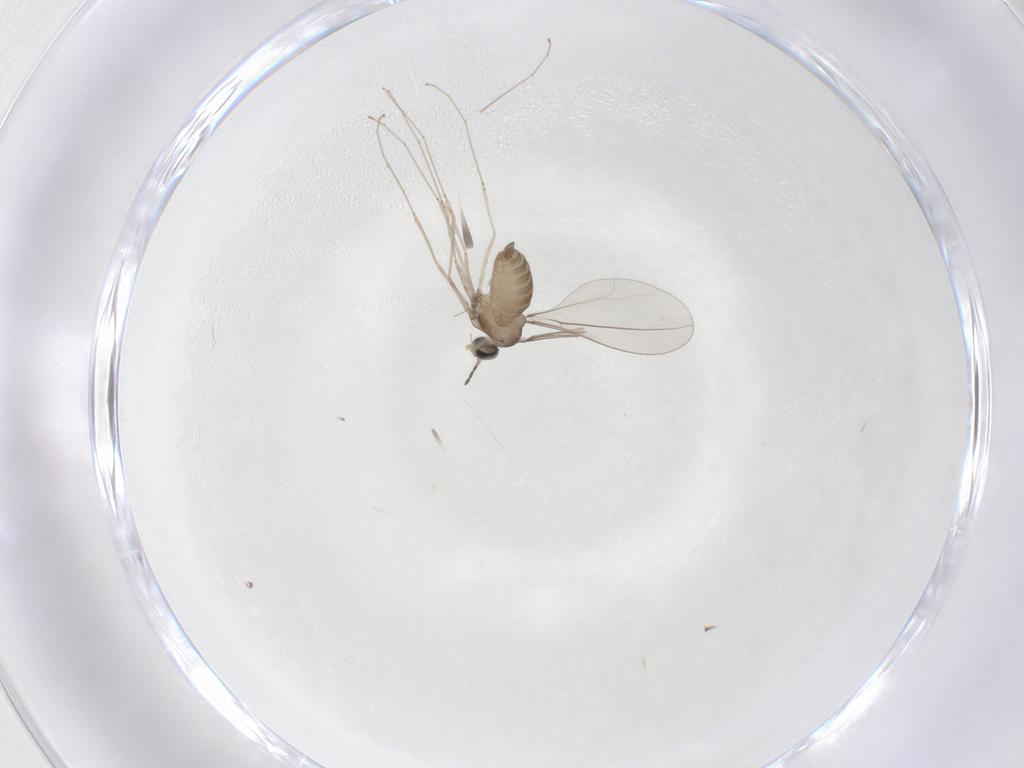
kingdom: Animalia
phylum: Arthropoda
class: Insecta
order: Diptera
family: Cecidomyiidae
